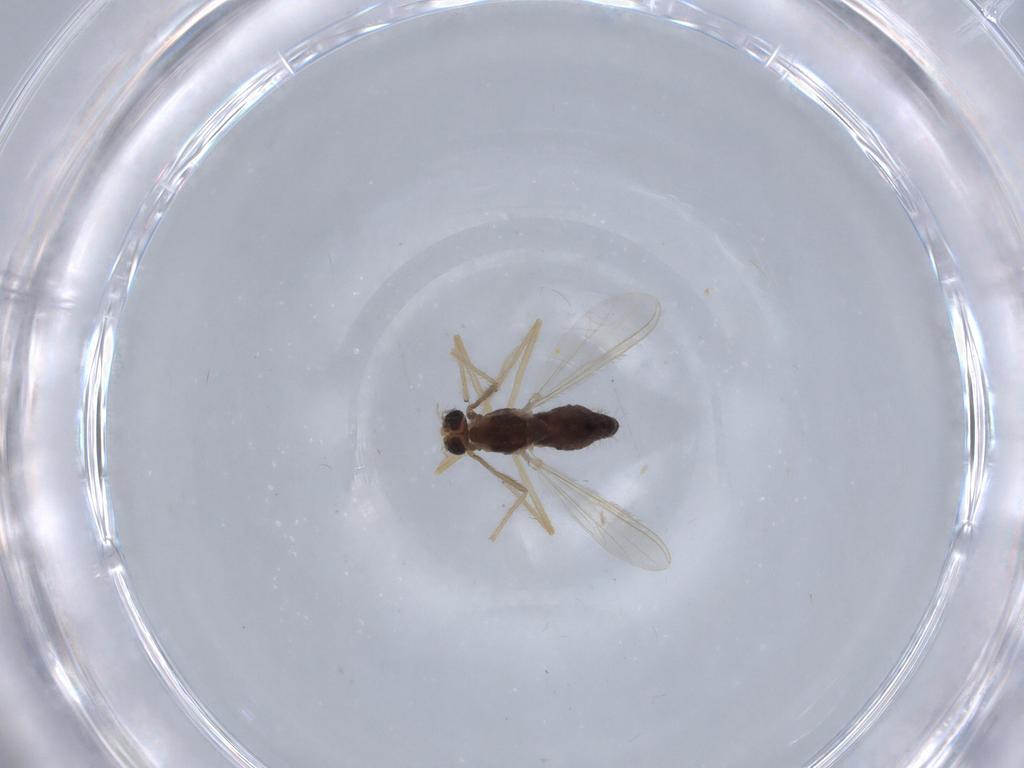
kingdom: Animalia
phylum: Arthropoda
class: Insecta
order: Diptera
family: Chironomidae
